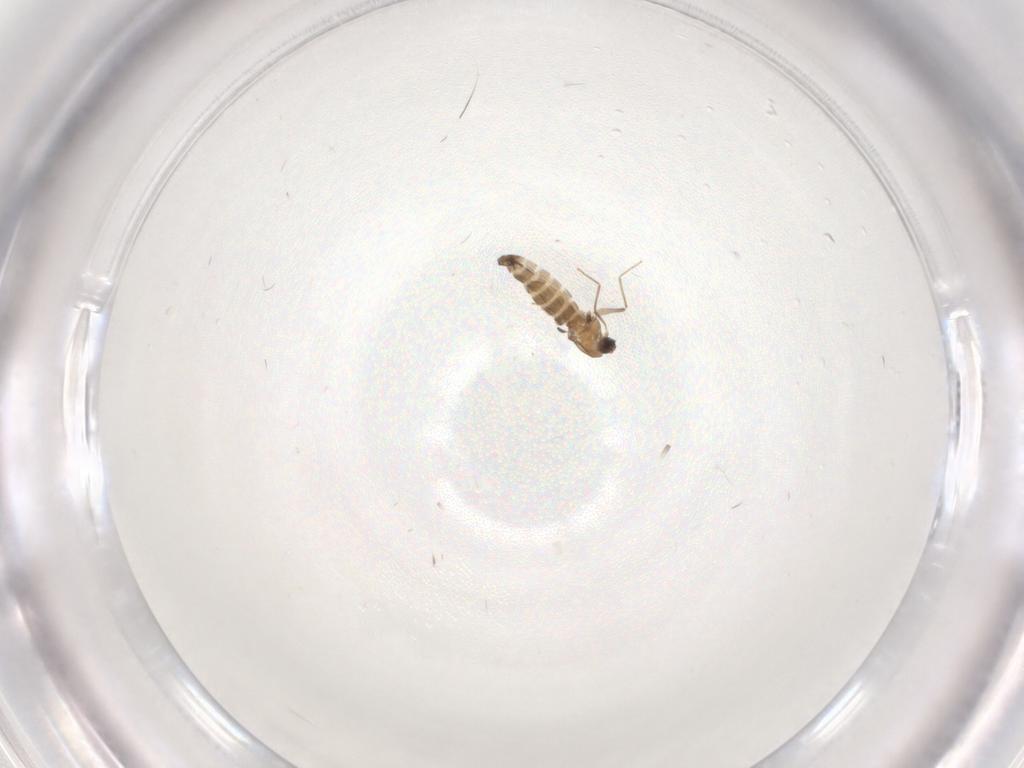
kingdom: Animalia
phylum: Arthropoda
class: Insecta
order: Diptera
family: Chironomidae
